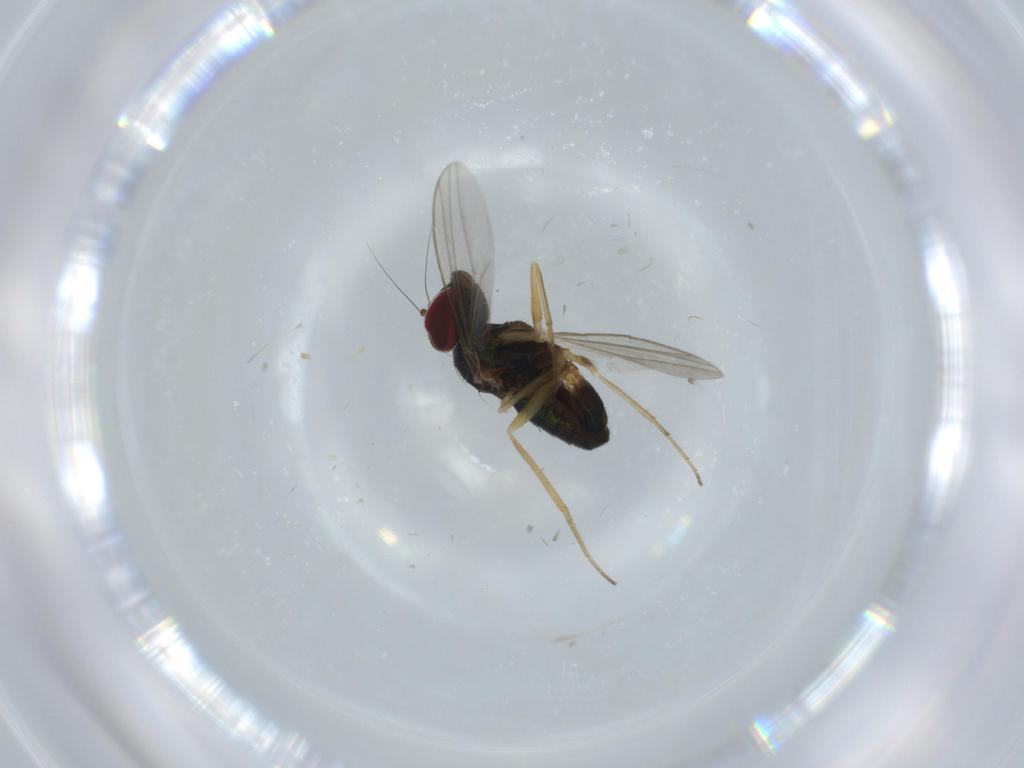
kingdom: Animalia
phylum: Arthropoda
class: Insecta
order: Diptera
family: Dolichopodidae
